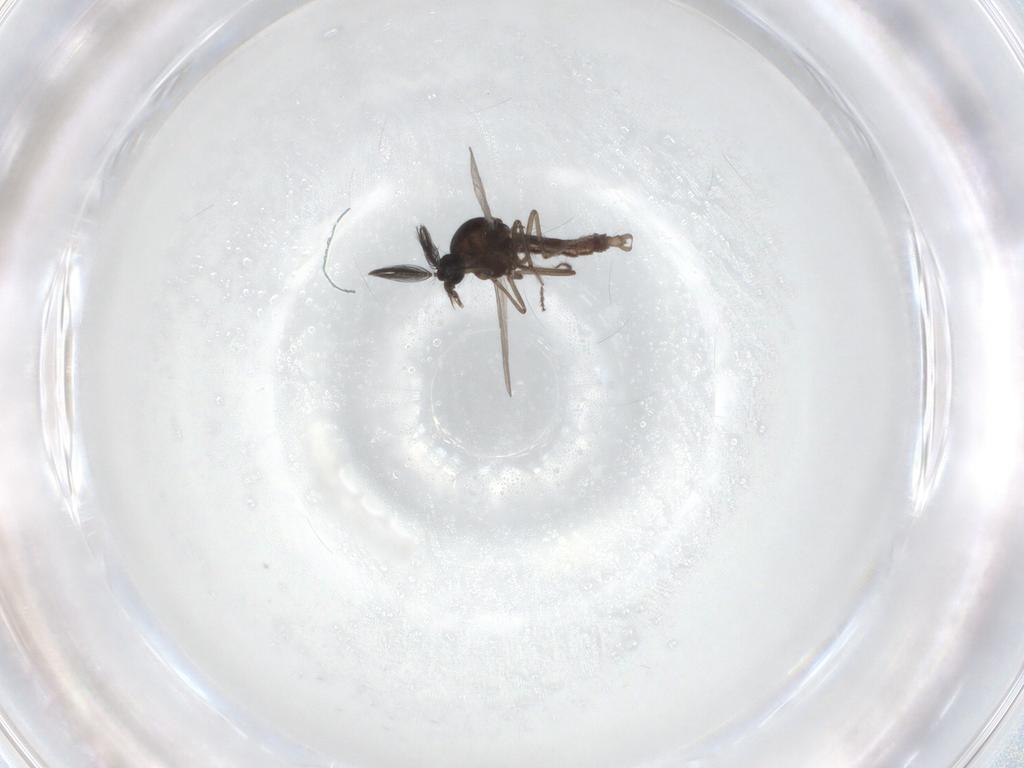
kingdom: Animalia
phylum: Arthropoda
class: Insecta
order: Diptera
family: Ceratopogonidae
